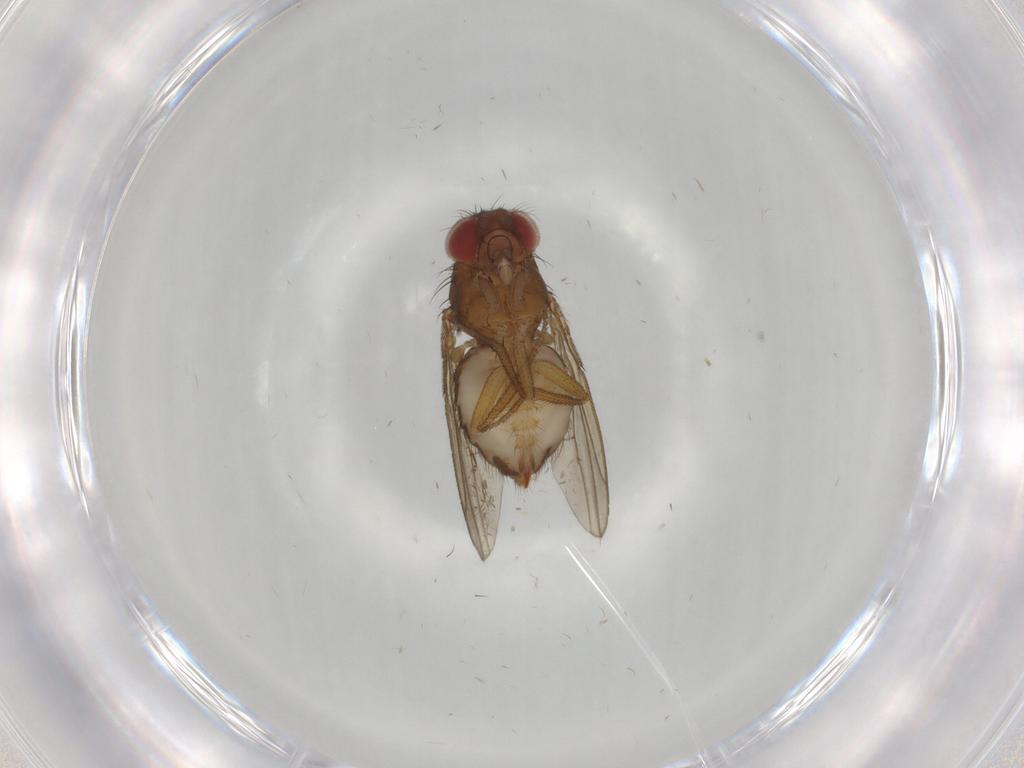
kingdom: Animalia
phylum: Arthropoda
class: Insecta
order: Diptera
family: Drosophilidae
